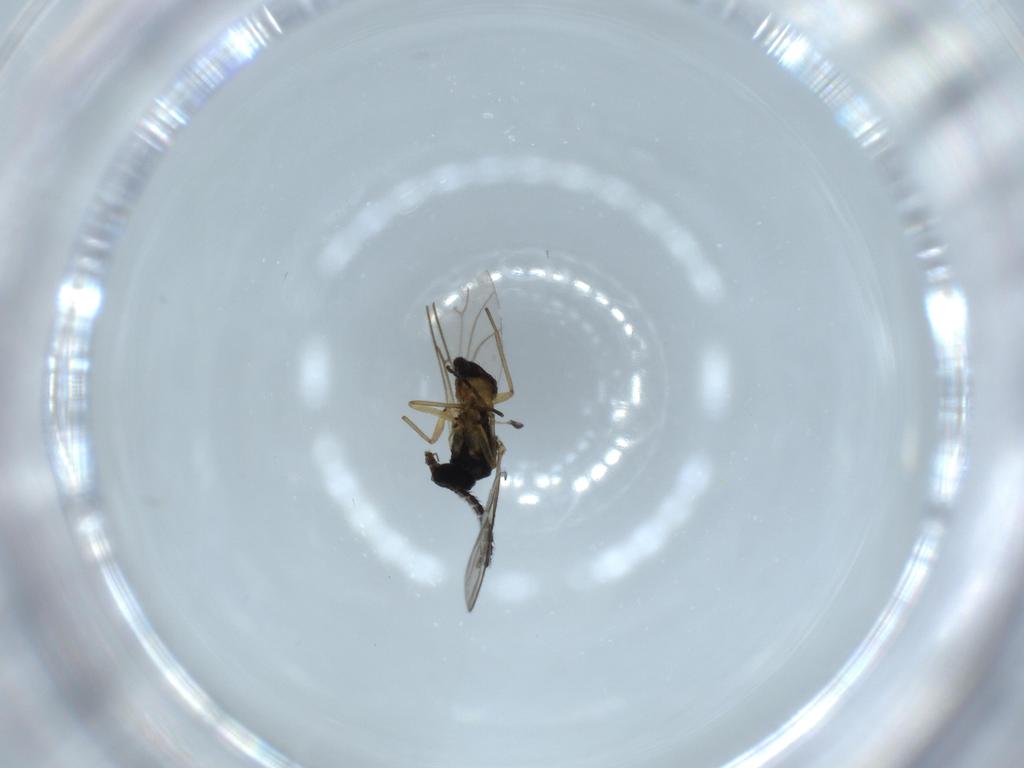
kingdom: Animalia
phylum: Arthropoda
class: Insecta
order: Diptera
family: Sciaridae
